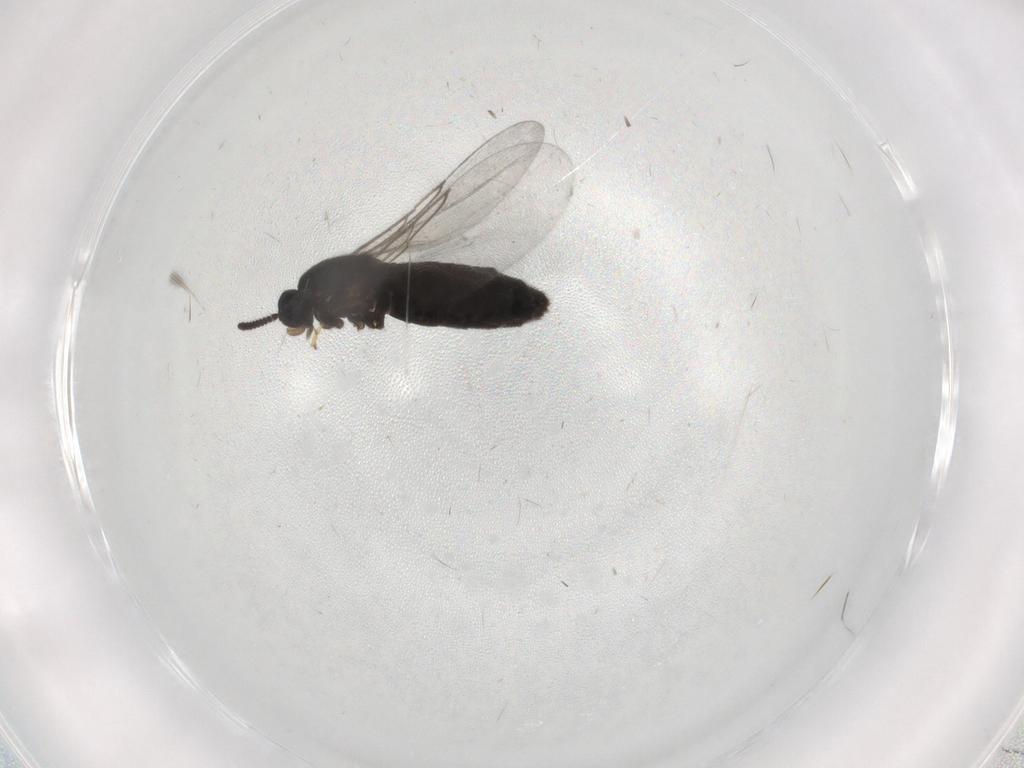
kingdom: Animalia
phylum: Arthropoda
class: Insecta
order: Diptera
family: Scatopsidae
